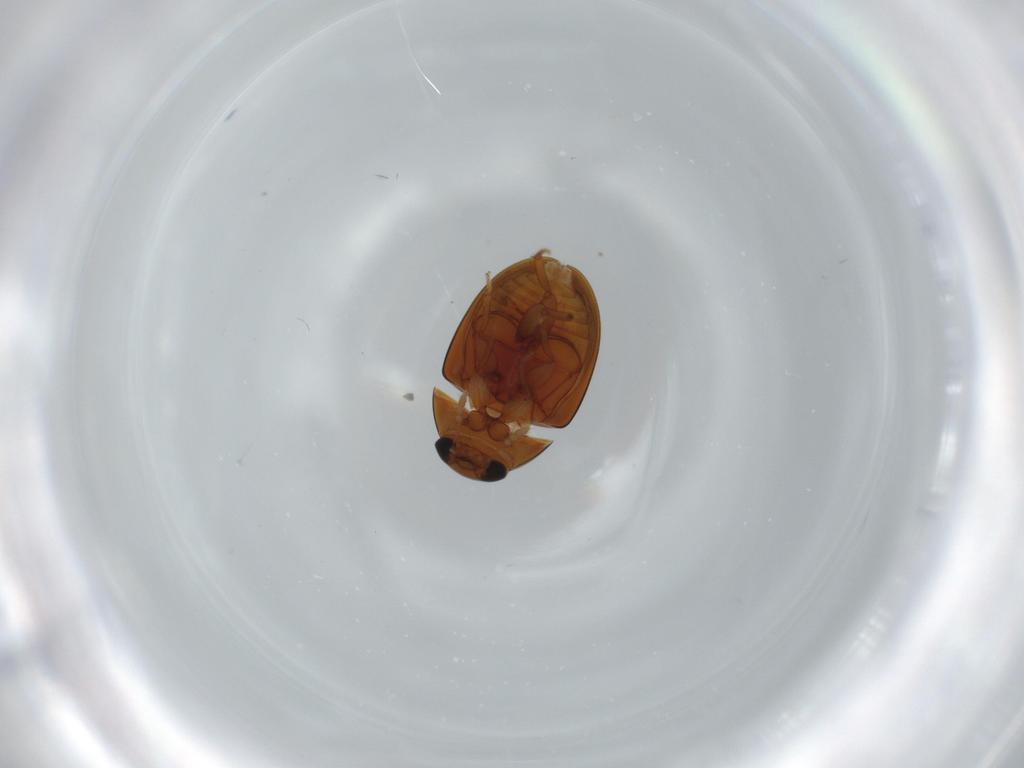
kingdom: Animalia
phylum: Arthropoda
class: Insecta
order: Coleoptera
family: Phalacridae
